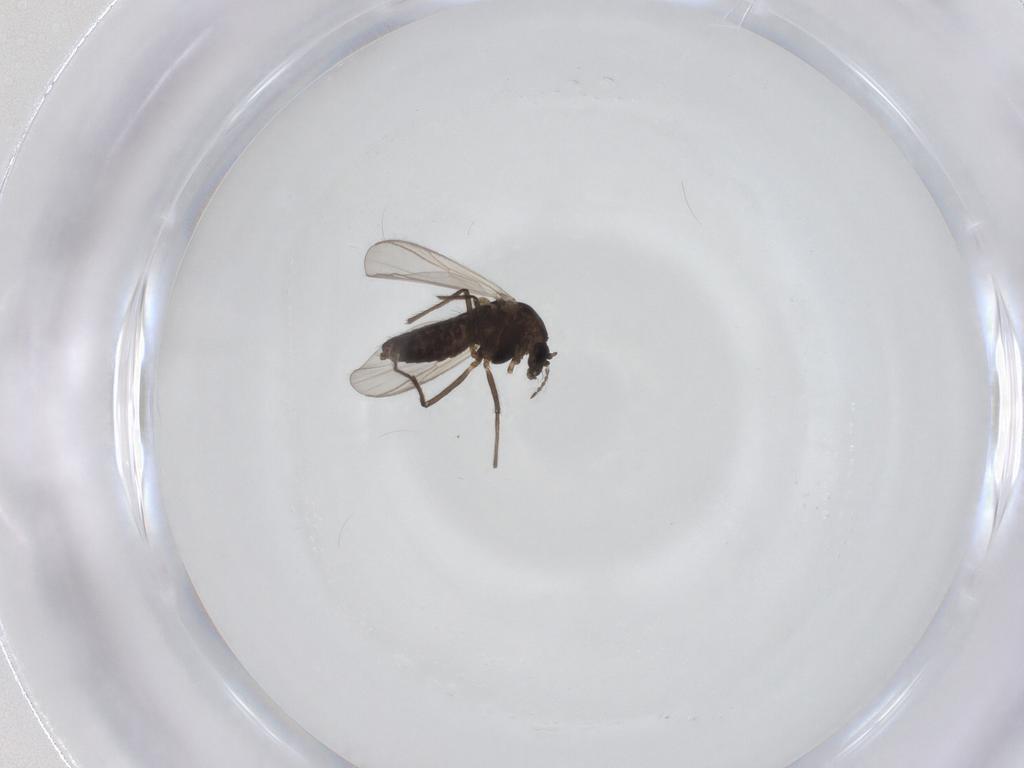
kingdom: Animalia
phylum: Arthropoda
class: Insecta
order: Diptera
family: Chironomidae
